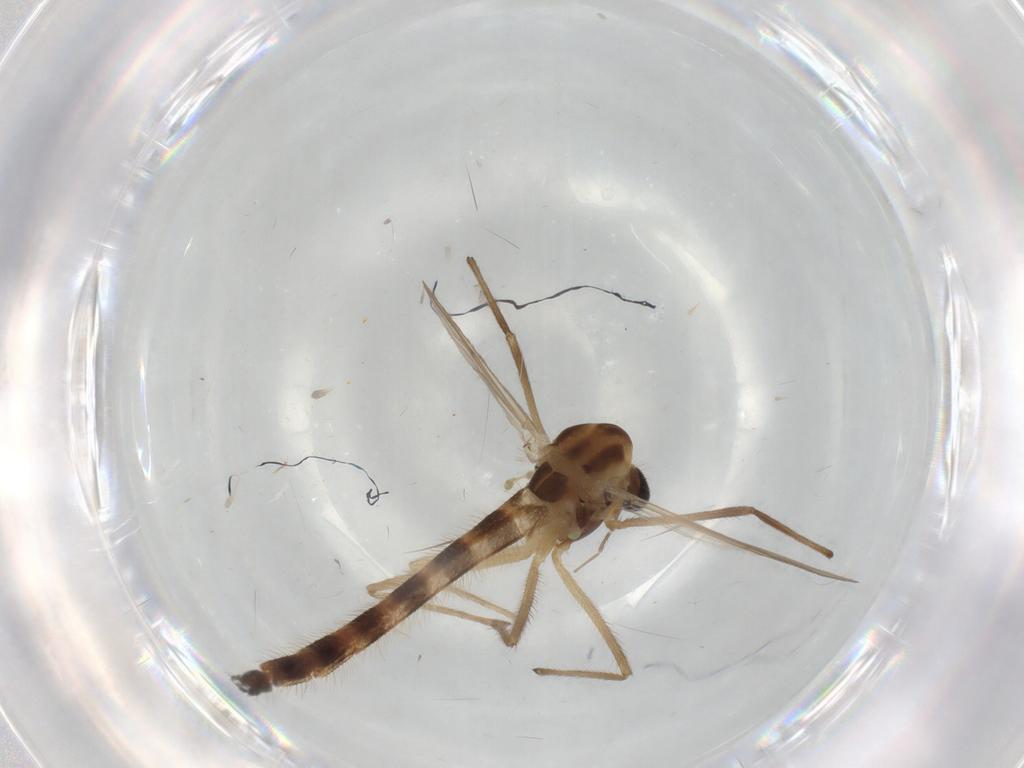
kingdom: Animalia
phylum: Arthropoda
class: Insecta
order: Diptera
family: Chironomidae
